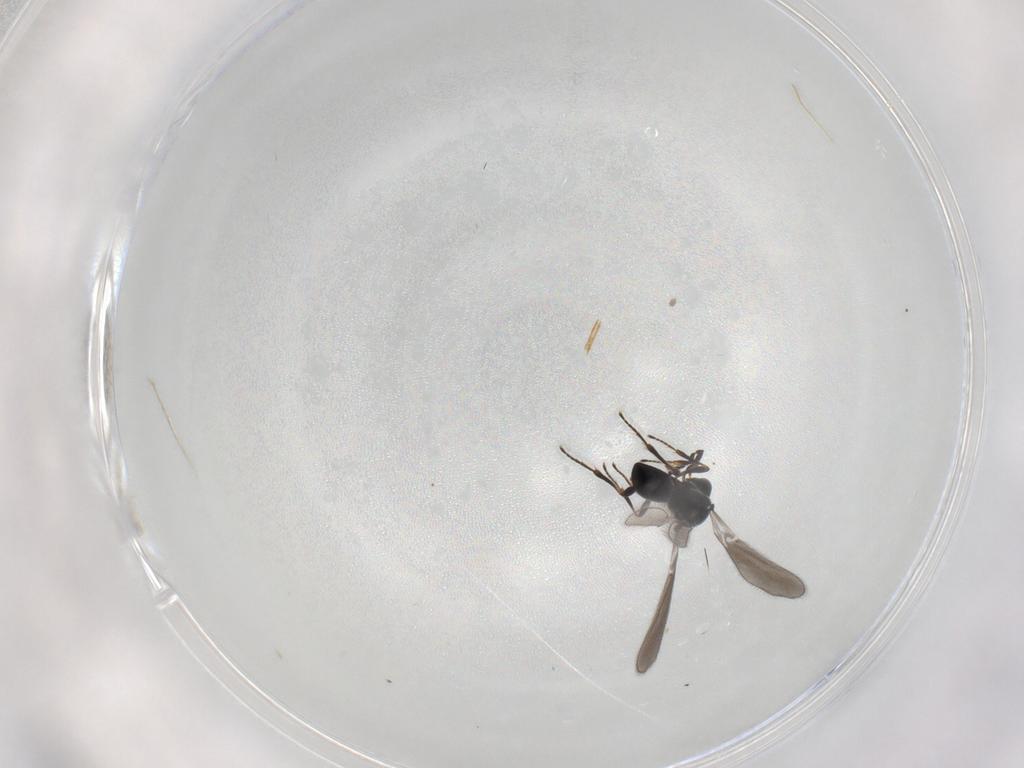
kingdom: Animalia
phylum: Arthropoda
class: Insecta
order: Hymenoptera
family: Platygastridae
